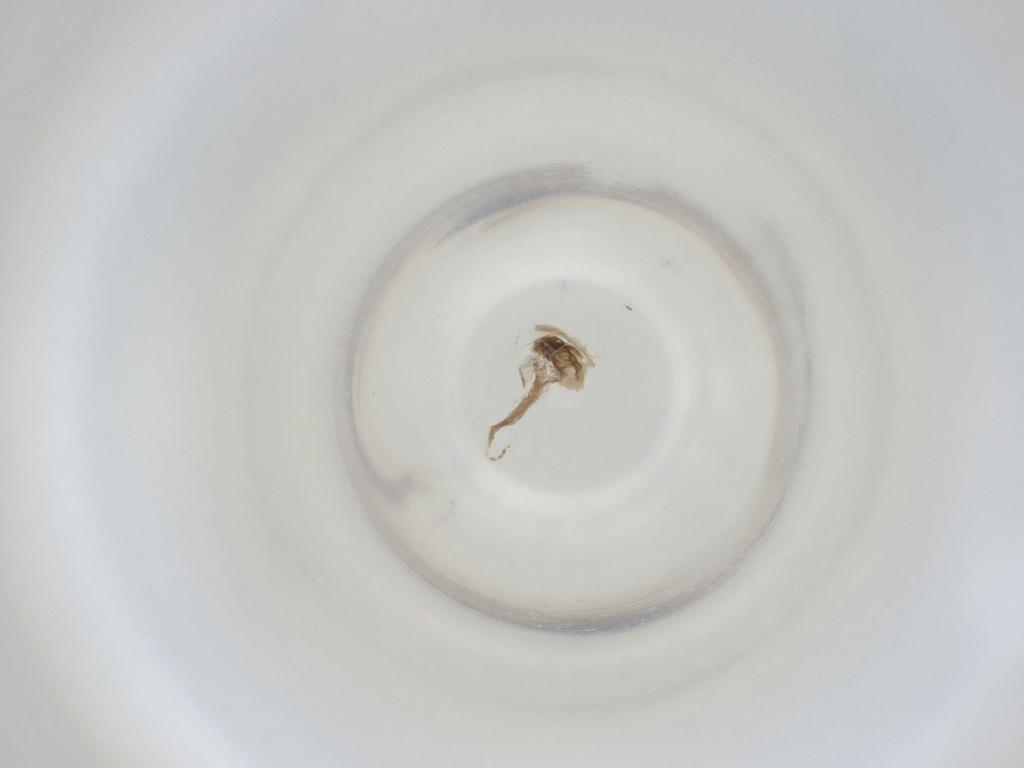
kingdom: Animalia
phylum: Arthropoda
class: Insecta
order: Diptera
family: Cecidomyiidae
